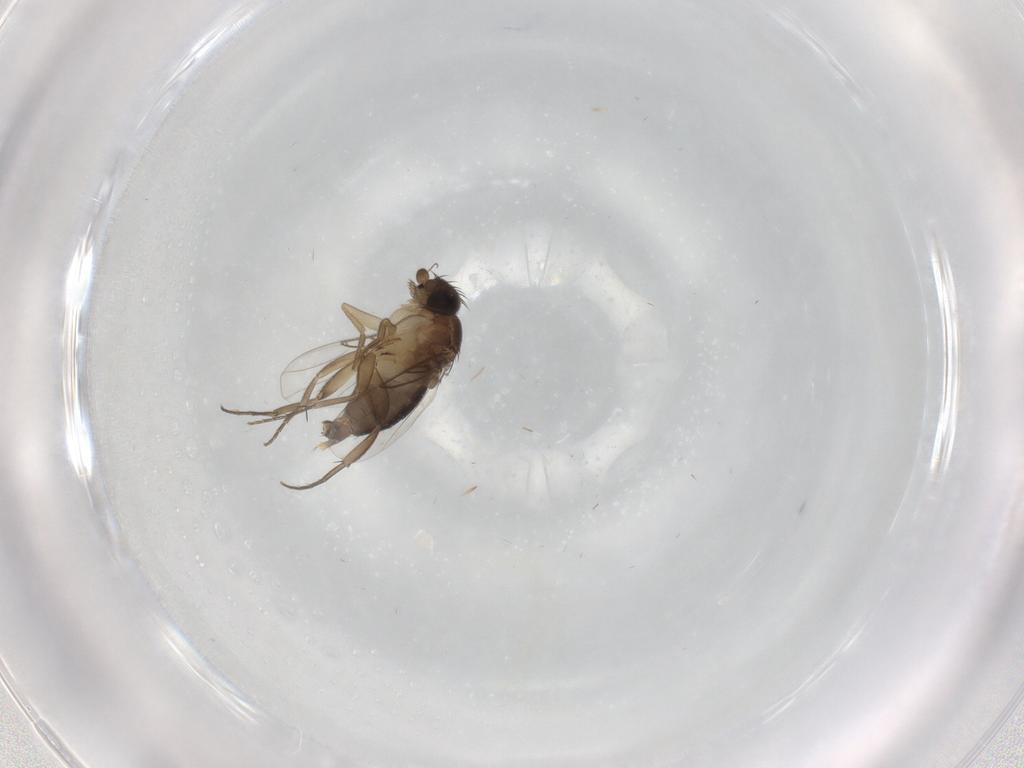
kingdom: Animalia
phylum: Arthropoda
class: Insecta
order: Diptera
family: Phoridae
